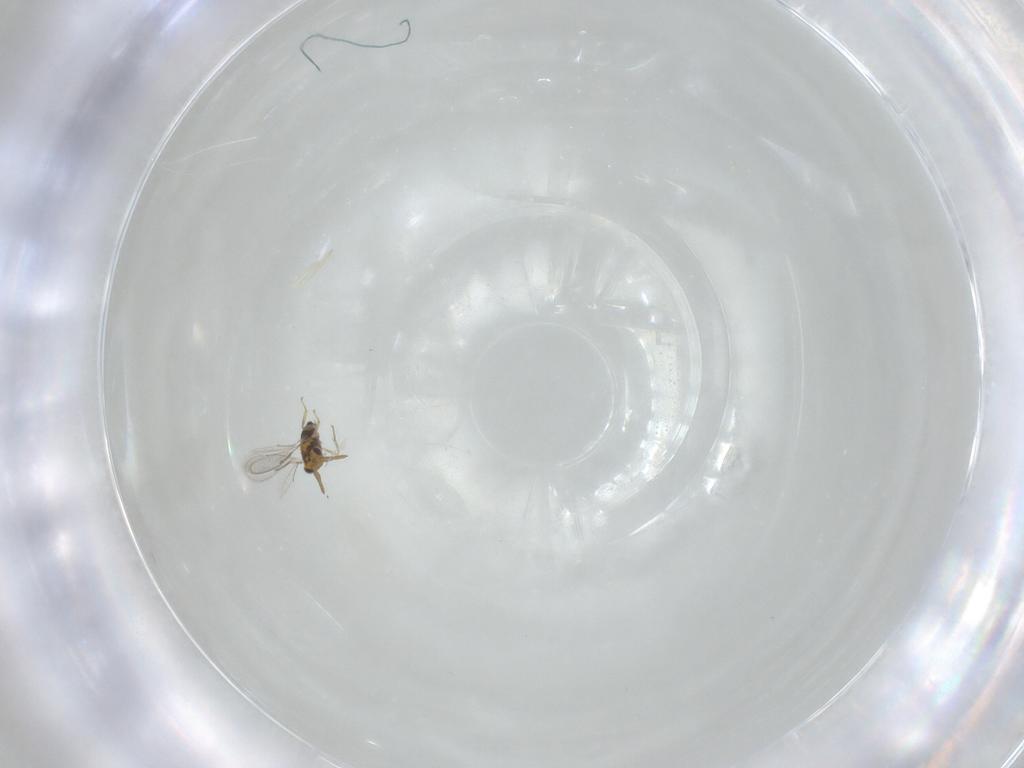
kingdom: Animalia
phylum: Arthropoda
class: Insecta
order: Hymenoptera
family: Aphelinidae
